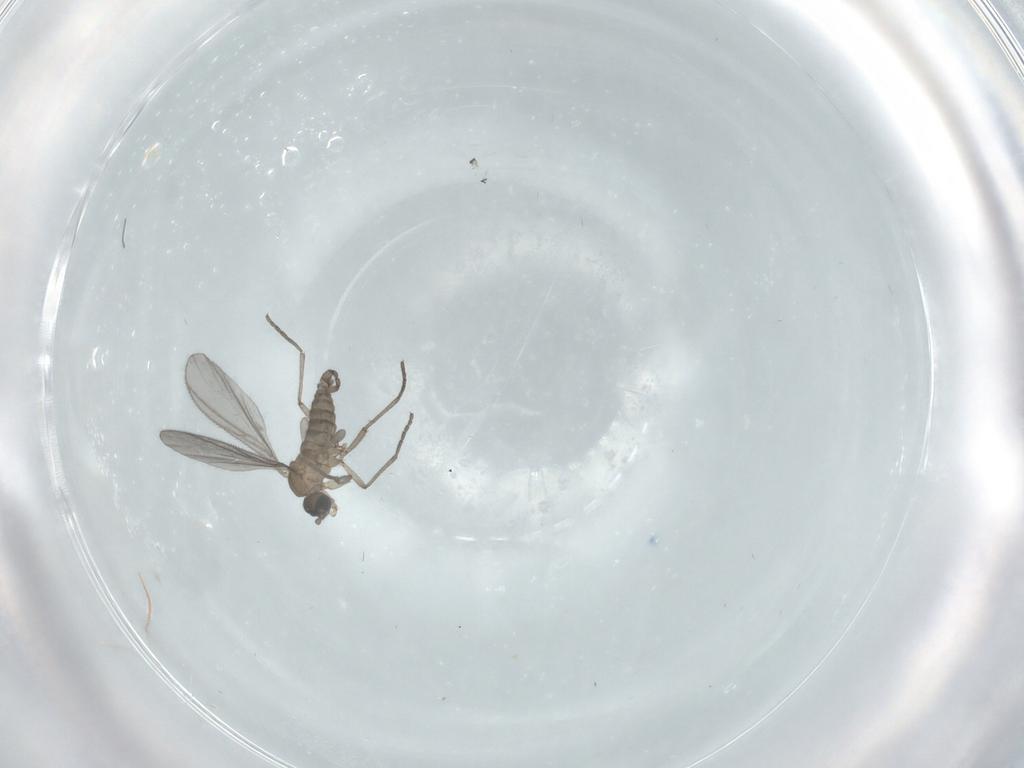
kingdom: Animalia
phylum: Arthropoda
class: Insecta
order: Diptera
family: Sciaridae
